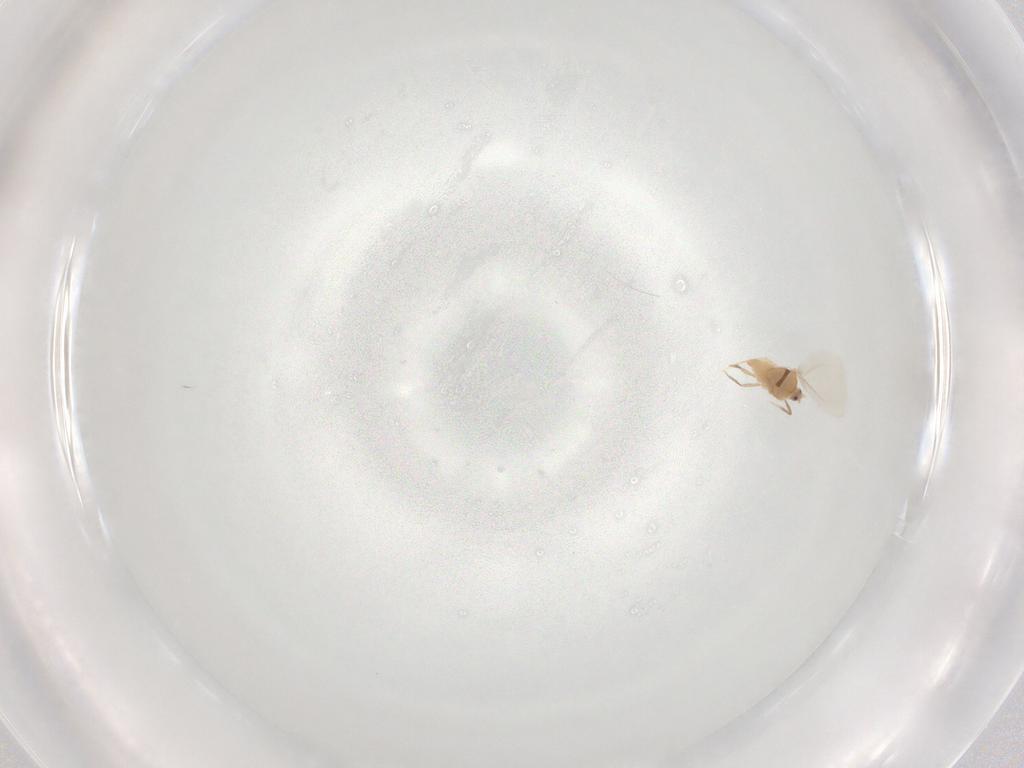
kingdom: Animalia
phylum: Arthropoda
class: Insecta
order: Hemiptera
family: Diaspididae
